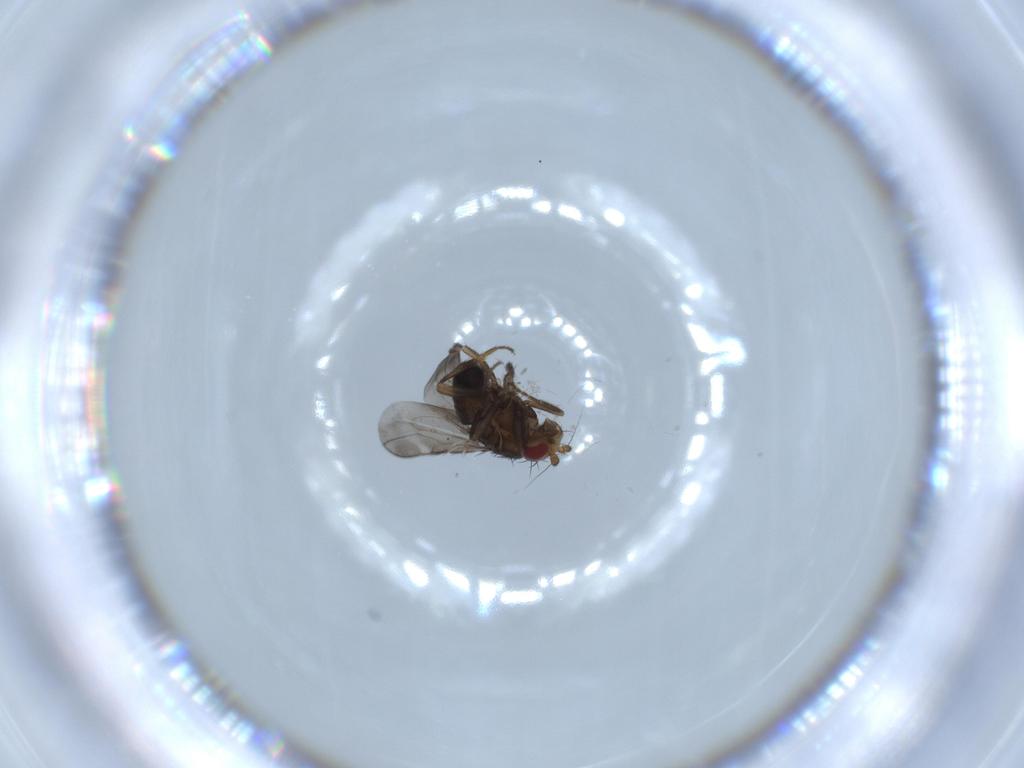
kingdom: Animalia
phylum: Arthropoda
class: Insecta
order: Diptera
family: Sphaeroceridae
